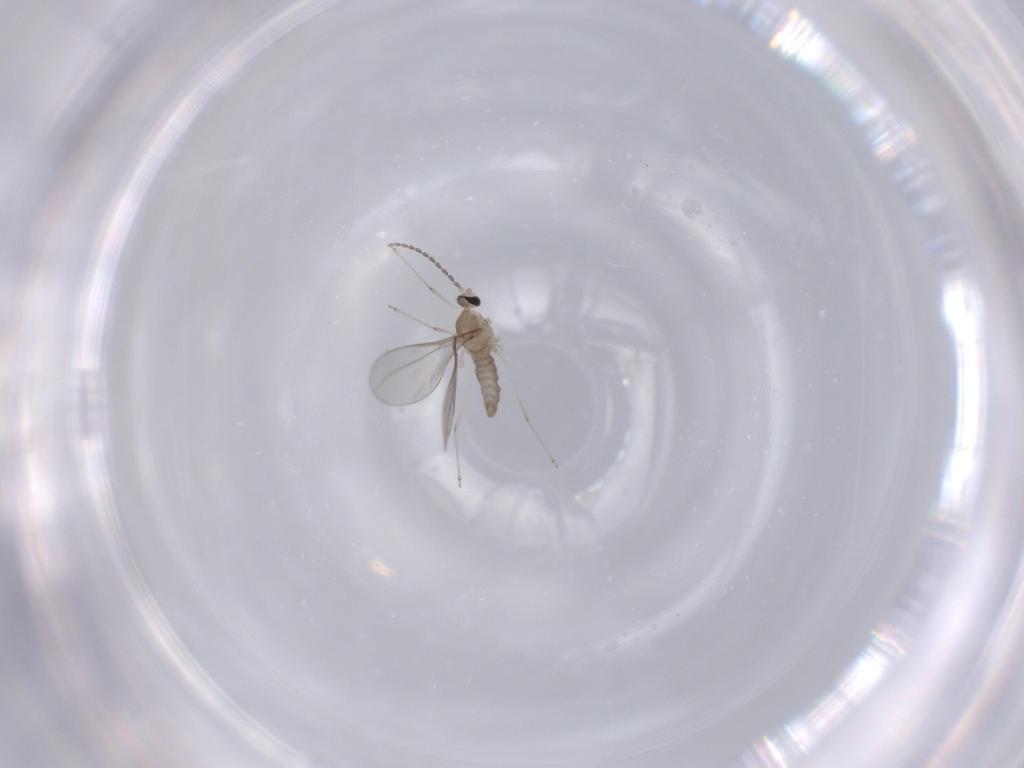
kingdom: Animalia
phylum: Arthropoda
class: Insecta
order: Diptera
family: Cecidomyiidae
